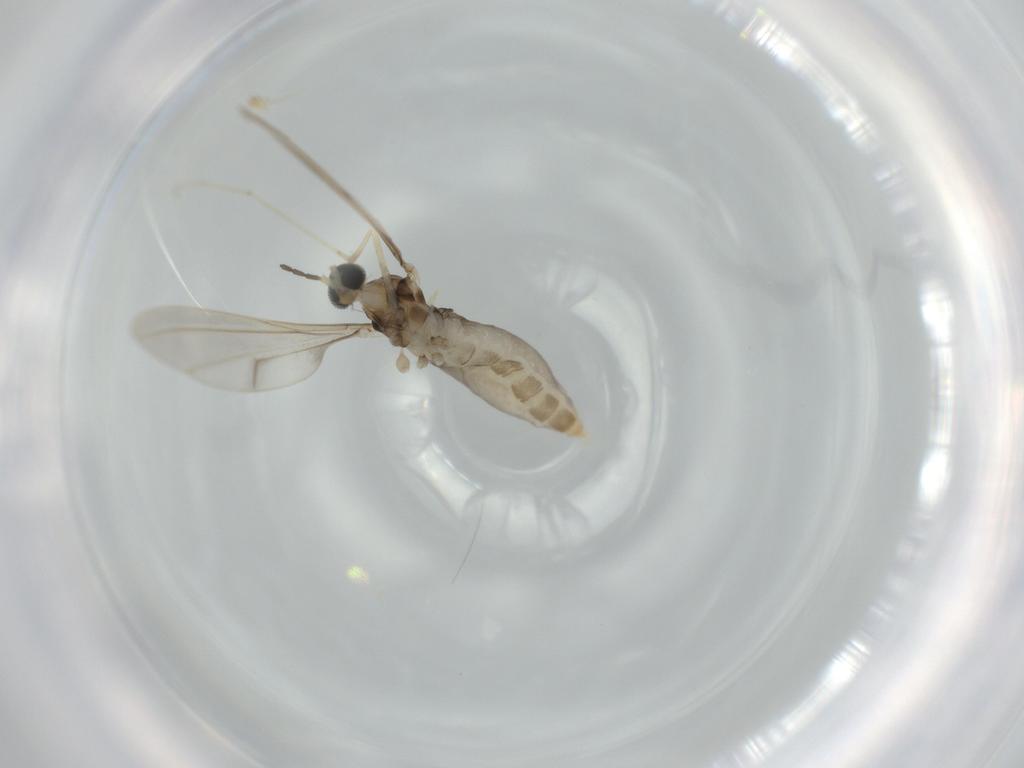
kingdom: Animalia
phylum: Arthropoda
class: Insecta
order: Diptera
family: Cecidomyiidae
